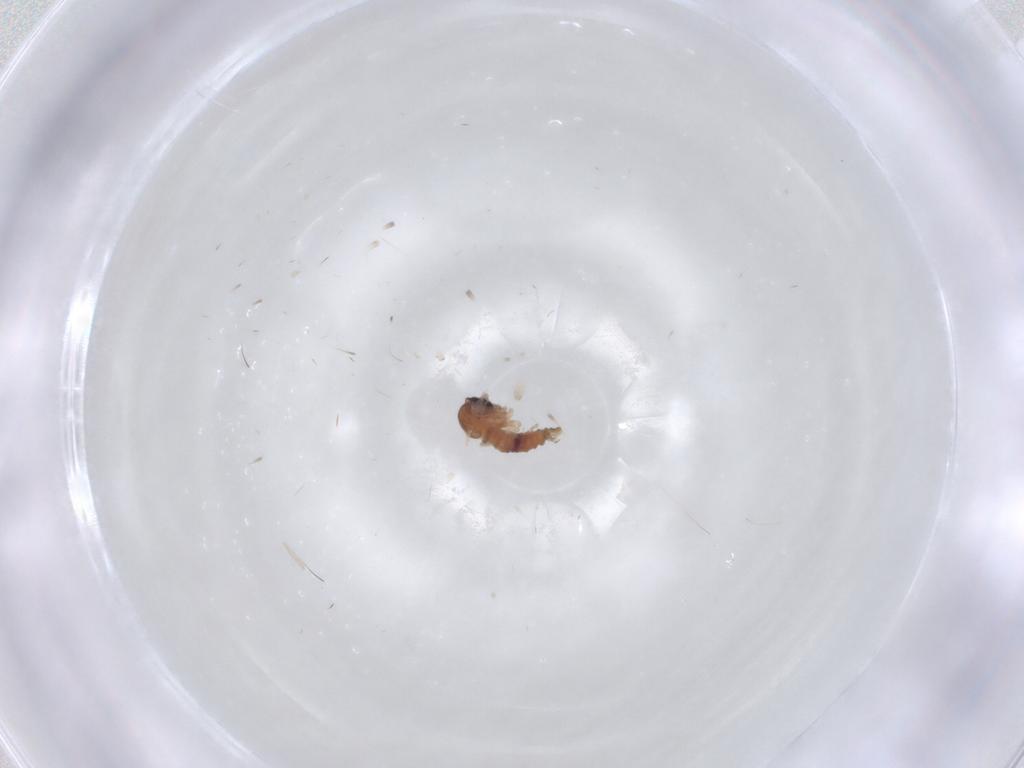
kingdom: Animalia
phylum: Arthropoda
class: Insecta
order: Diptera
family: Psychodidae
